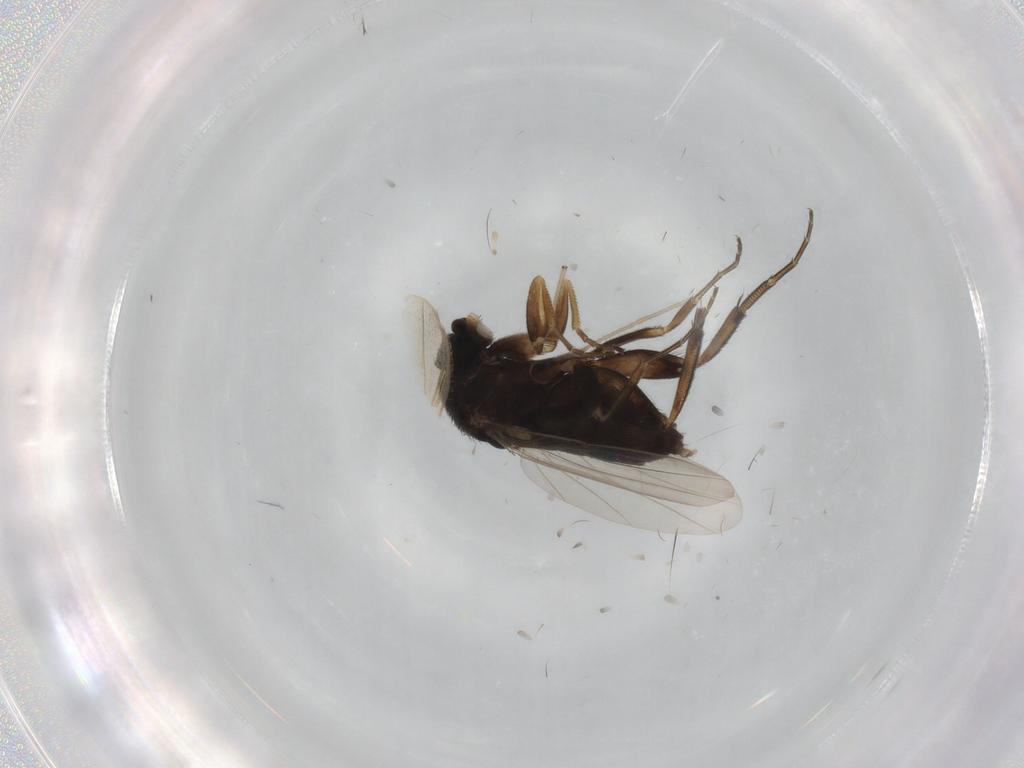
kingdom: Animalia
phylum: Arthropoda
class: Insecta
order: Diptera
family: Phoridae
